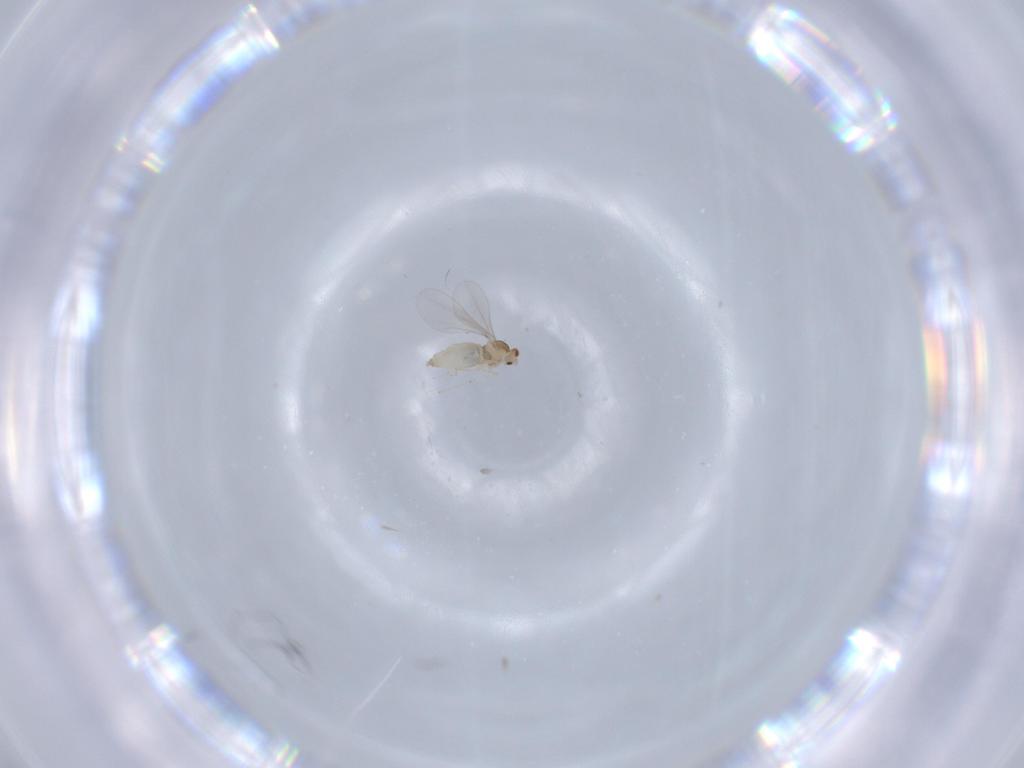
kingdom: Animalia
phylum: Arthropoda
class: Insecta
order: Diptera
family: Cecidomyiidae
